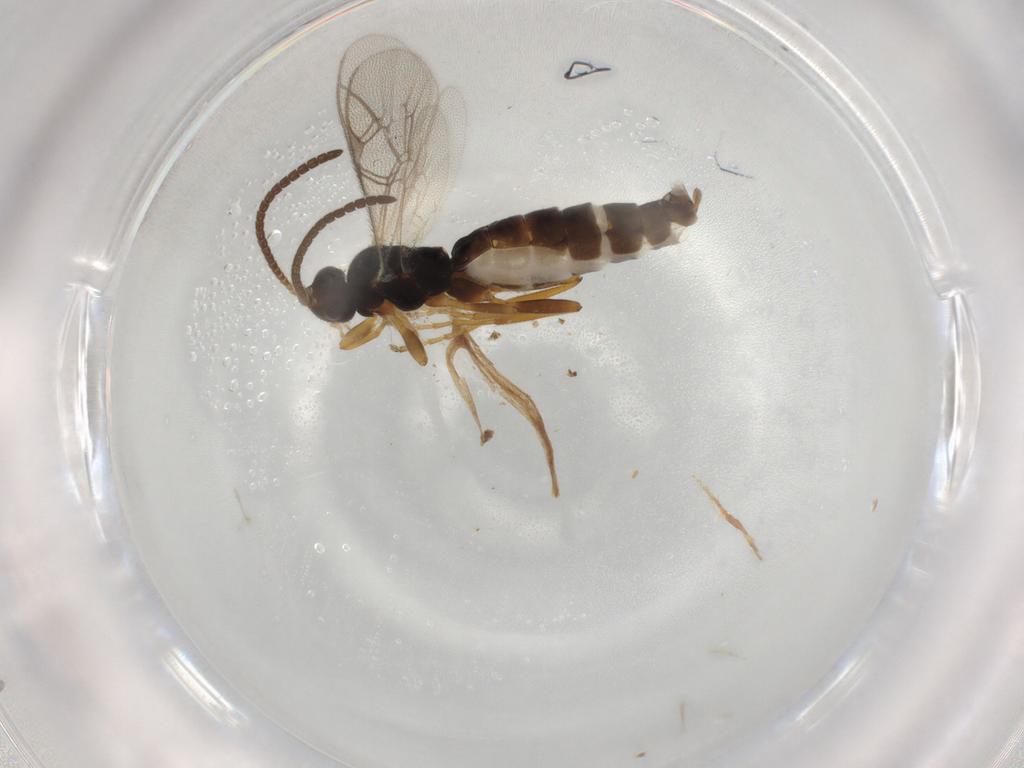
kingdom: Animalia
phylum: Arthropoda
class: Insecta
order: Hymenoptera
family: Ichneumonidae
